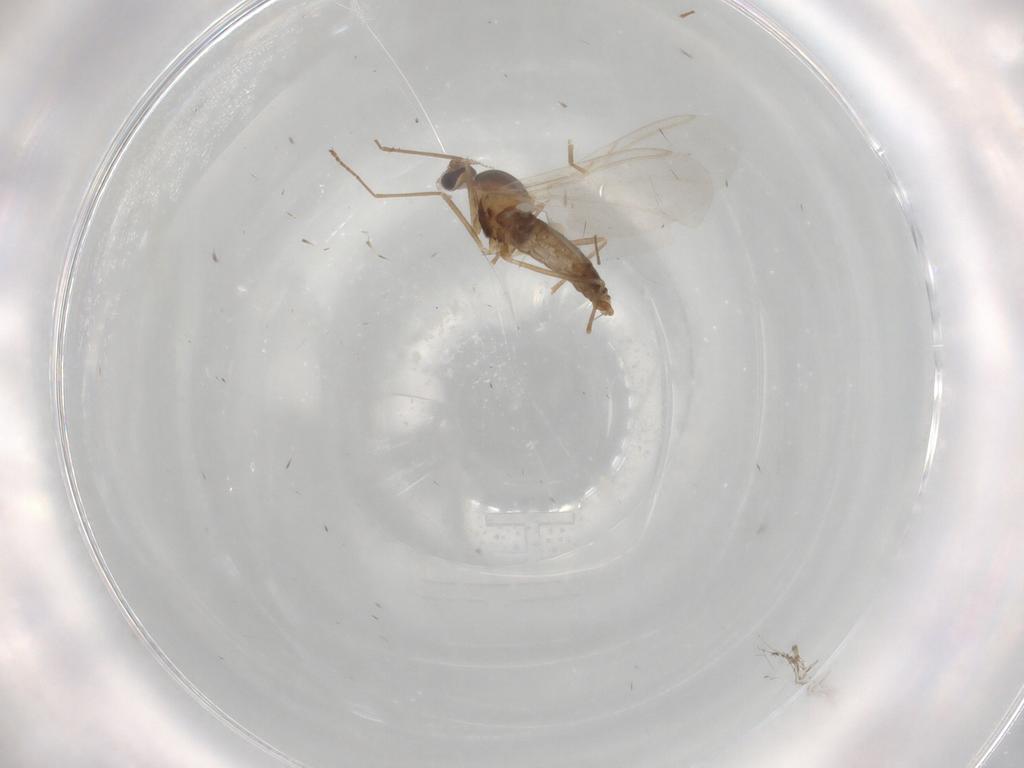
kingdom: Animalia
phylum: Arthropoda
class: Insecta
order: Diptera
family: Cecidomyiidae
